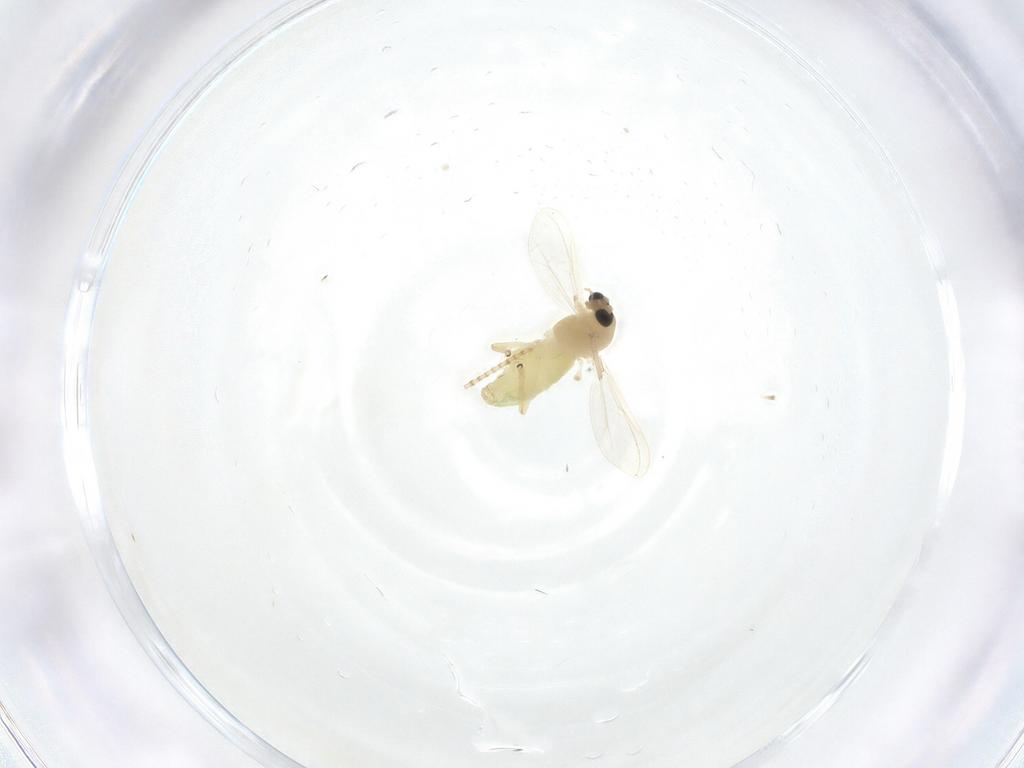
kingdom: Animalia
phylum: Arthropoda
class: Insecta
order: Diptera
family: Chironomidae
